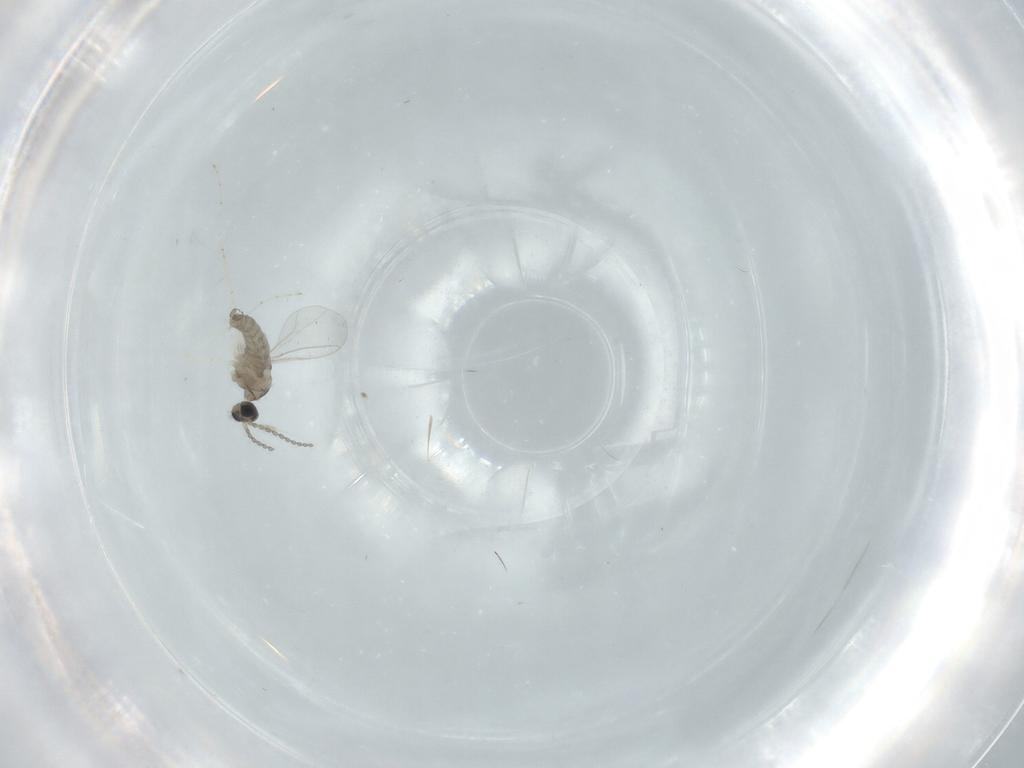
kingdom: Animalia
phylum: Arthropoda
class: Insecta
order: Diptera
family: Cecidomyiidae
